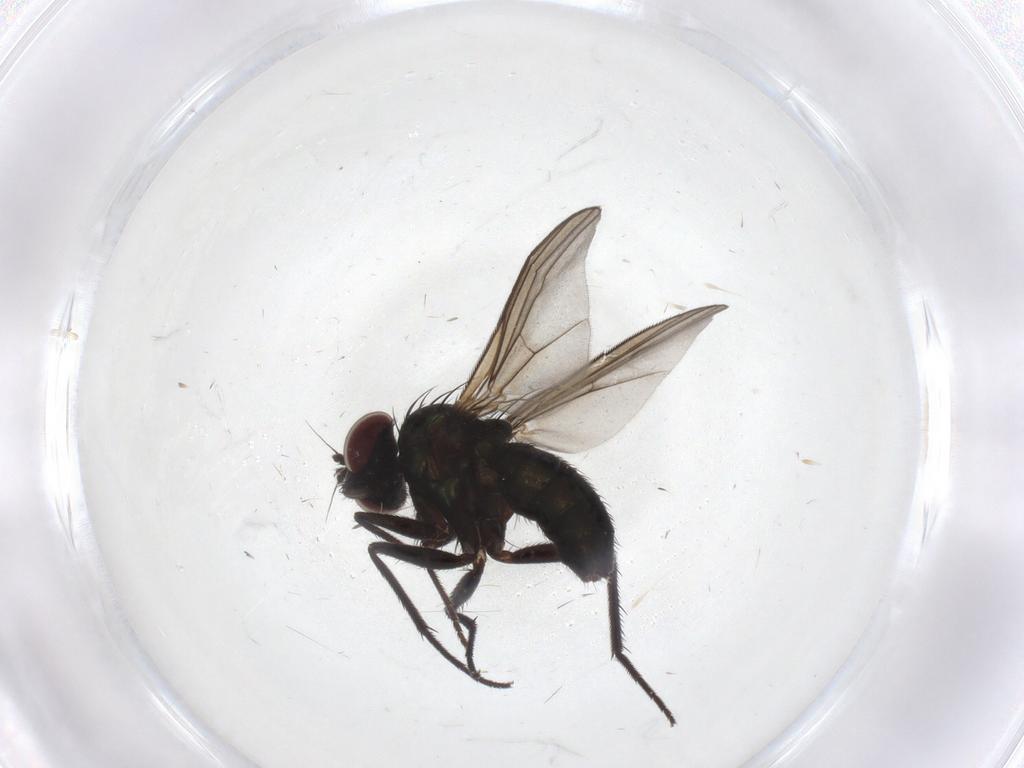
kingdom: Animalia
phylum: Arthropoda
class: Insecta
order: Diptera
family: Dolichopodidae
